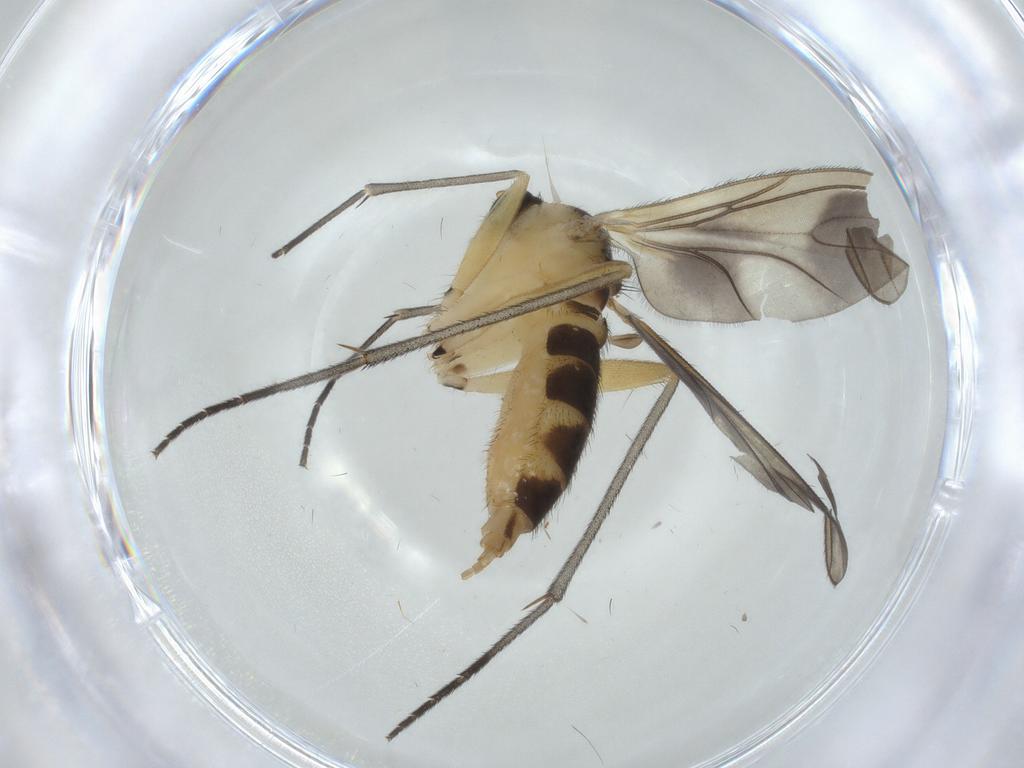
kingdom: Animalia
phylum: Arthropoda
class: Insecta
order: Diptera
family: Sciaridae
